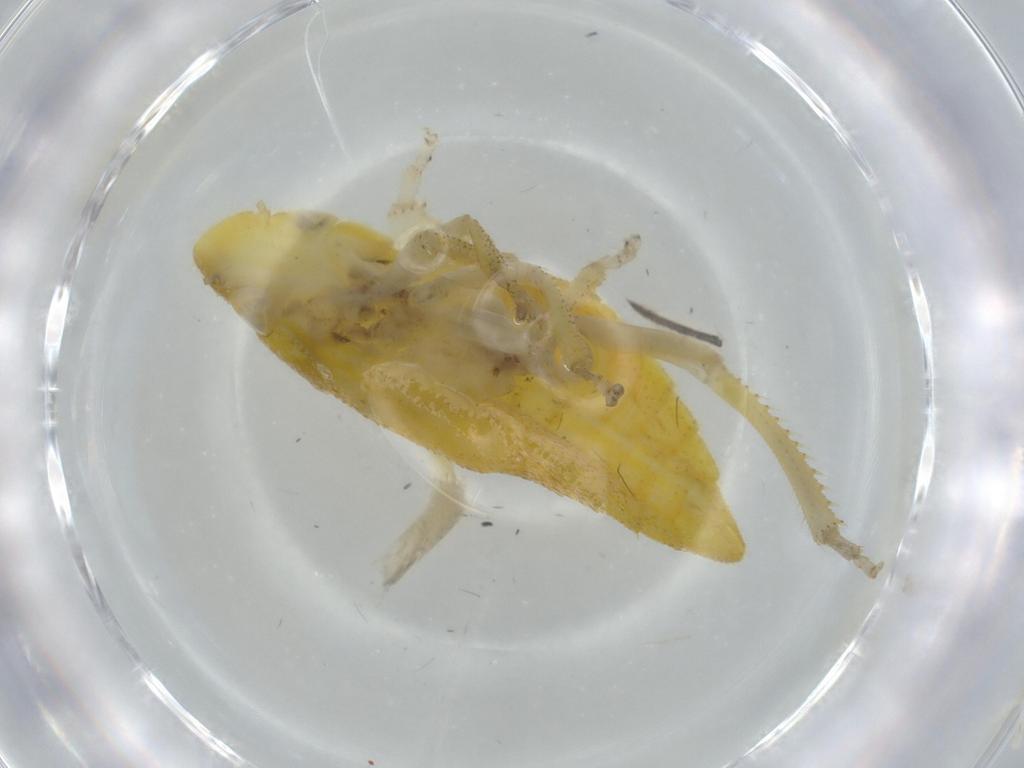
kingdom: Animalia
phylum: Arthropoda
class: Insecta
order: Hemiptera
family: Cicadellidae
